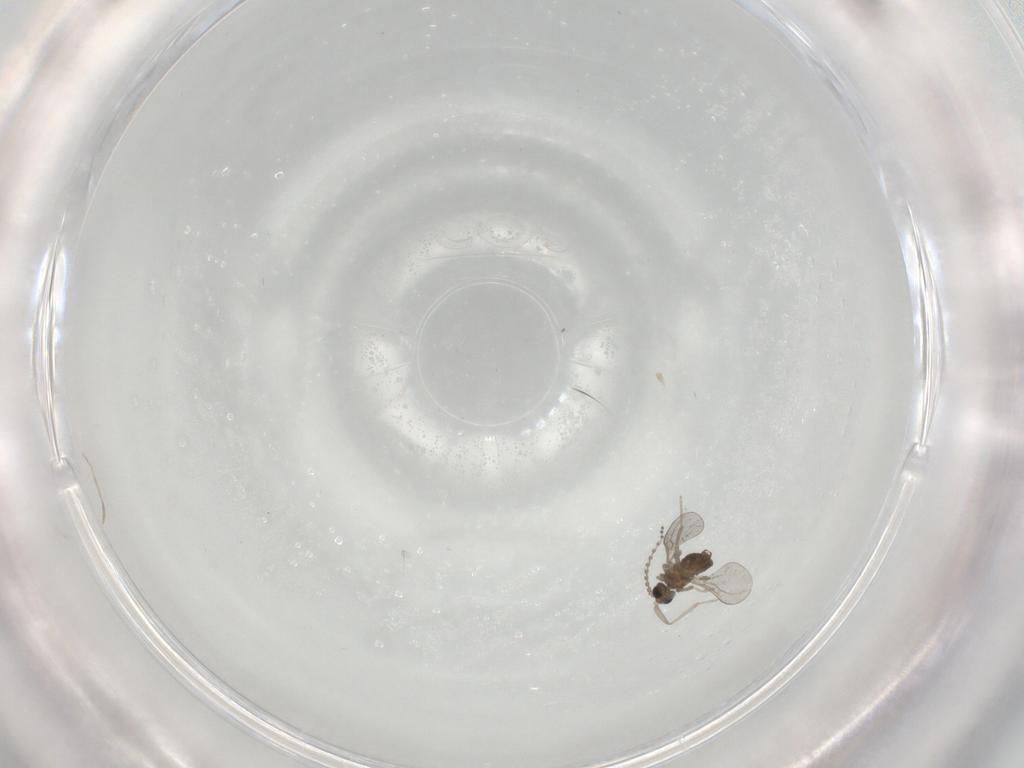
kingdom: Animalia
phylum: Arthropoda
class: Insecta
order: Diptera
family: Cecidomyiidae
